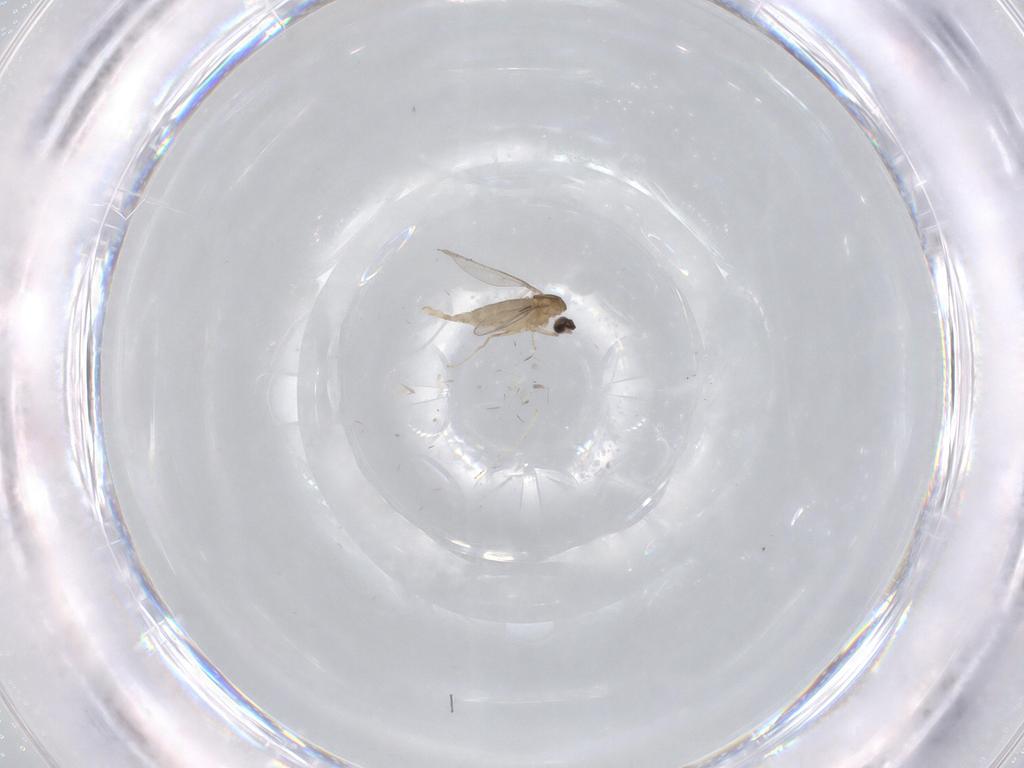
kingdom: Animalia
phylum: Arthropoda
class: Insecta
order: Diptera
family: Cecidomyiidae
